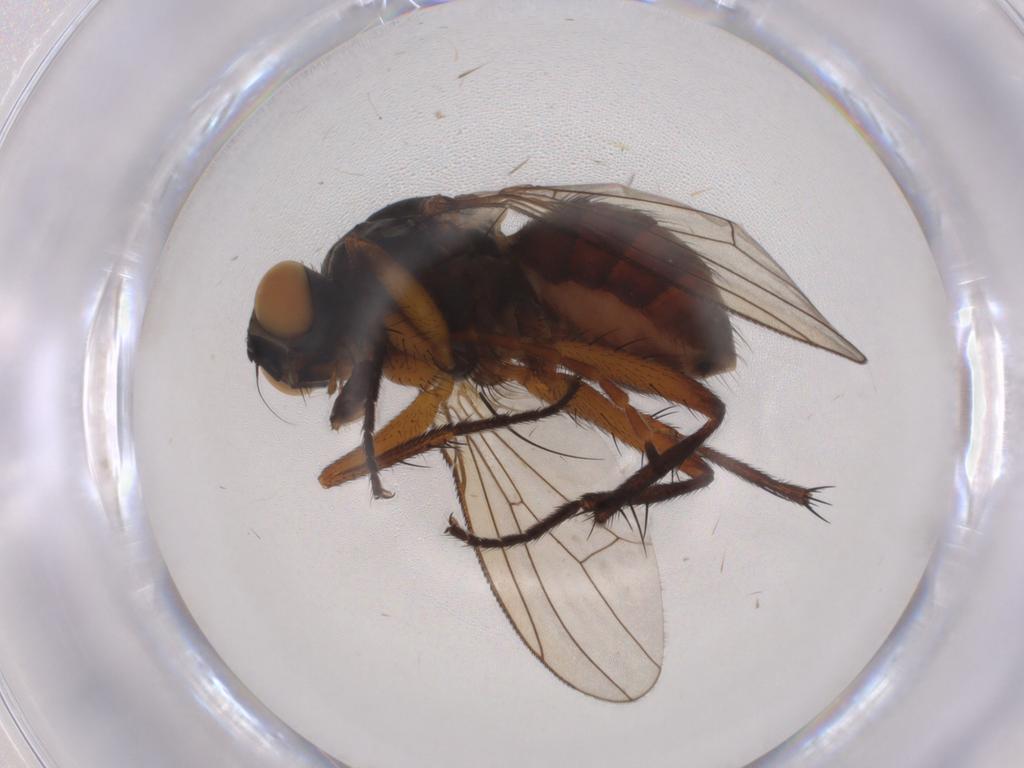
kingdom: Animalia
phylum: Arthropoda
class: Insecta
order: Diptera
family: Muscidae
